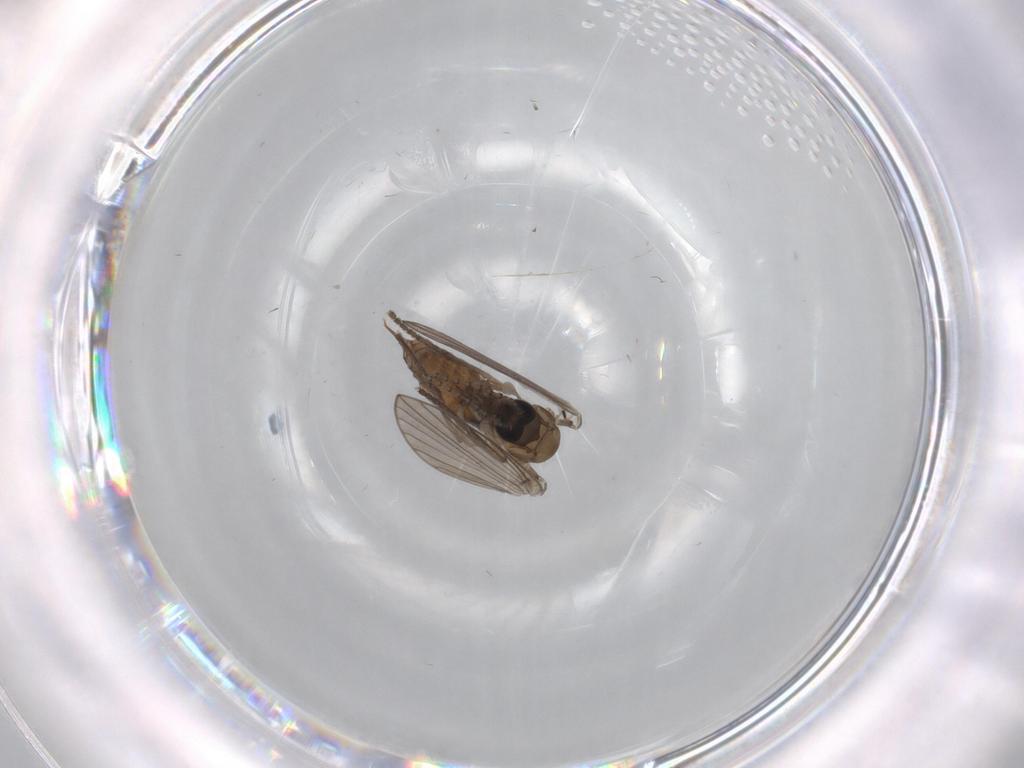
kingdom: Animalia
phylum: Arthropoda
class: Insecta
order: Diptera
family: Psychodidae
